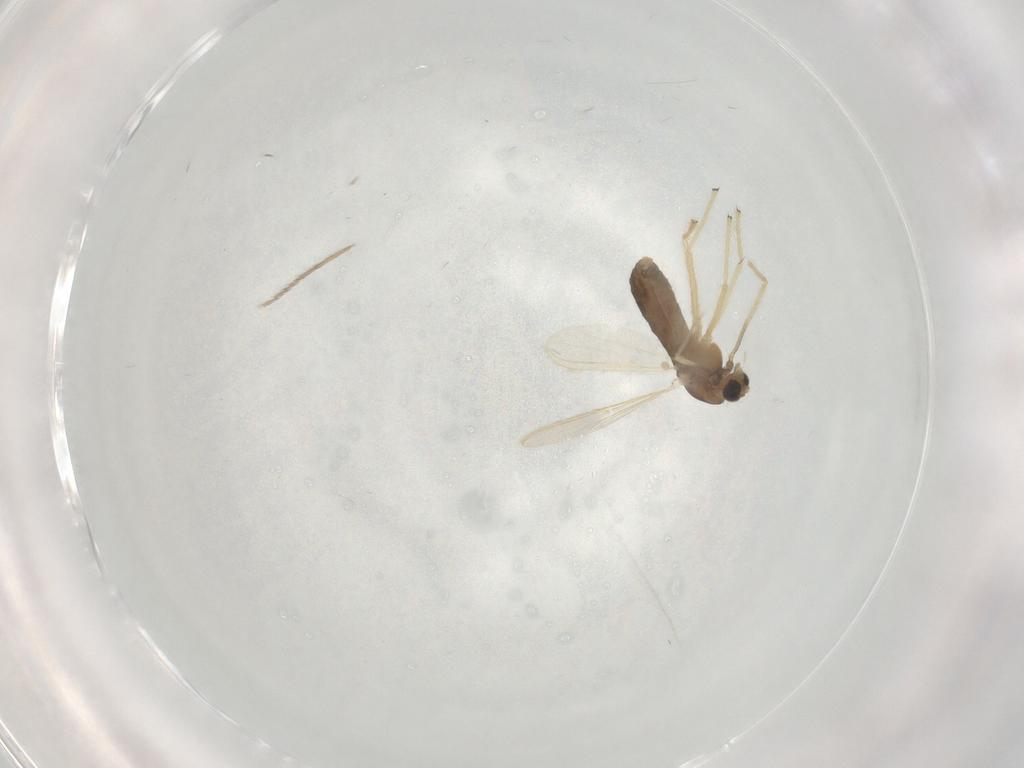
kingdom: Animalia
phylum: Arthropoda
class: Insecta
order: Diptera
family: Chironomidae
